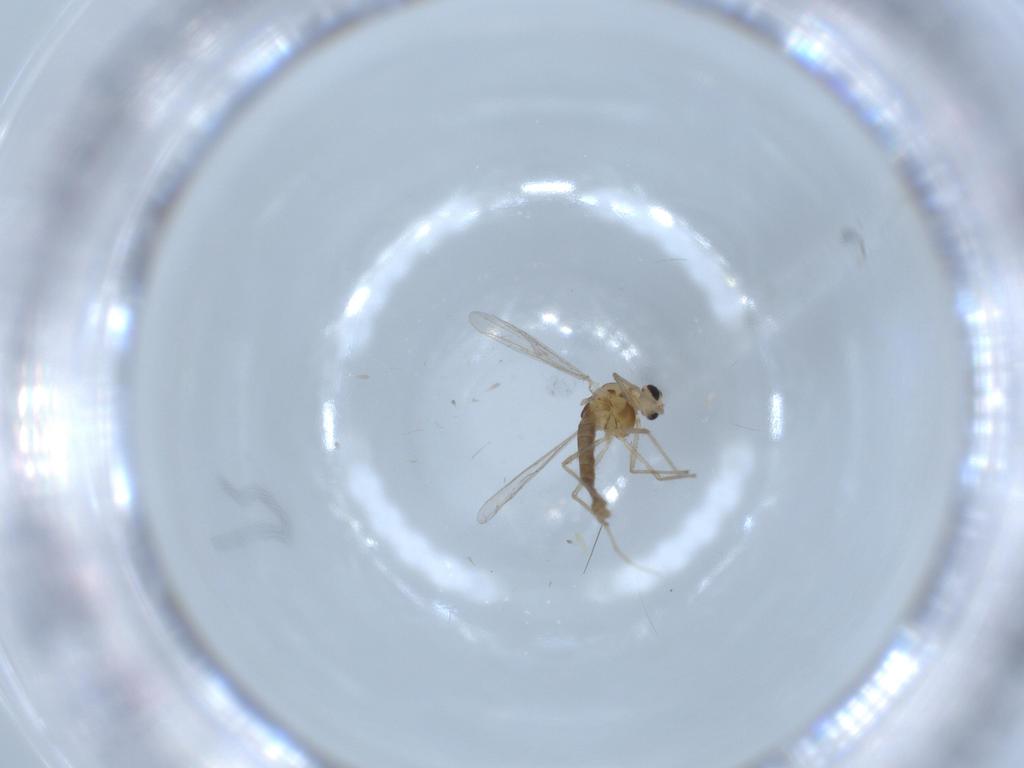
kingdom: Animalia
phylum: Arthropoda
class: Insecta
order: Diptera
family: Chironomidae
